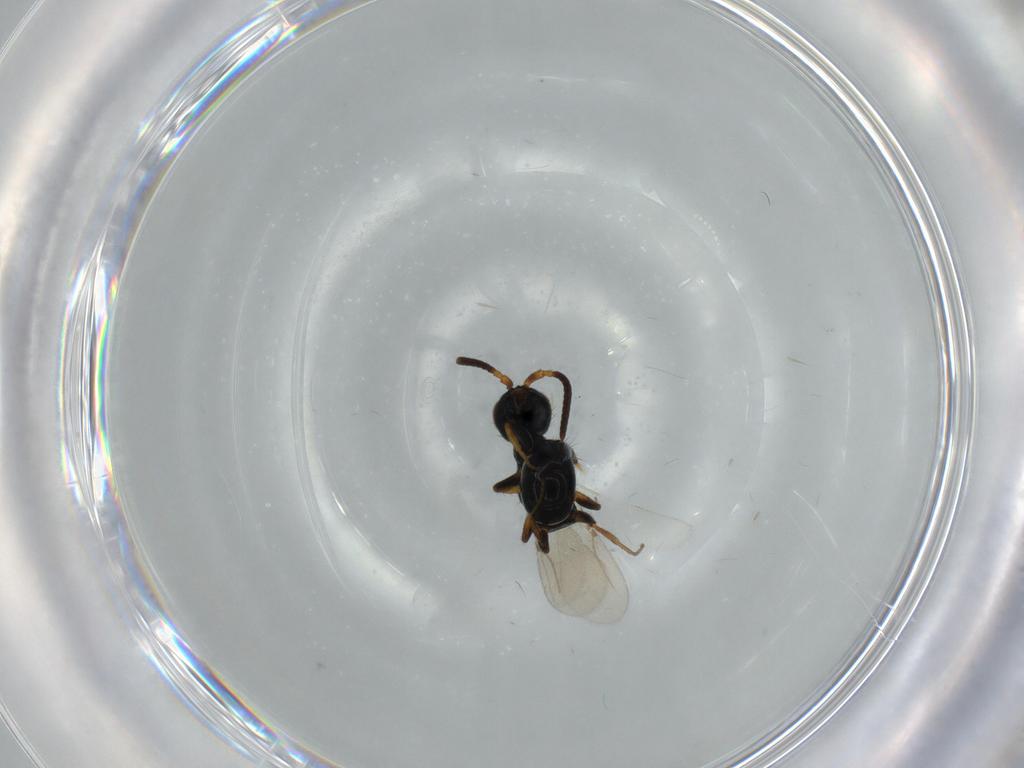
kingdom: Animalia
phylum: Arthropoda
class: Insecta
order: Hymenoptera
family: Bethylidae
